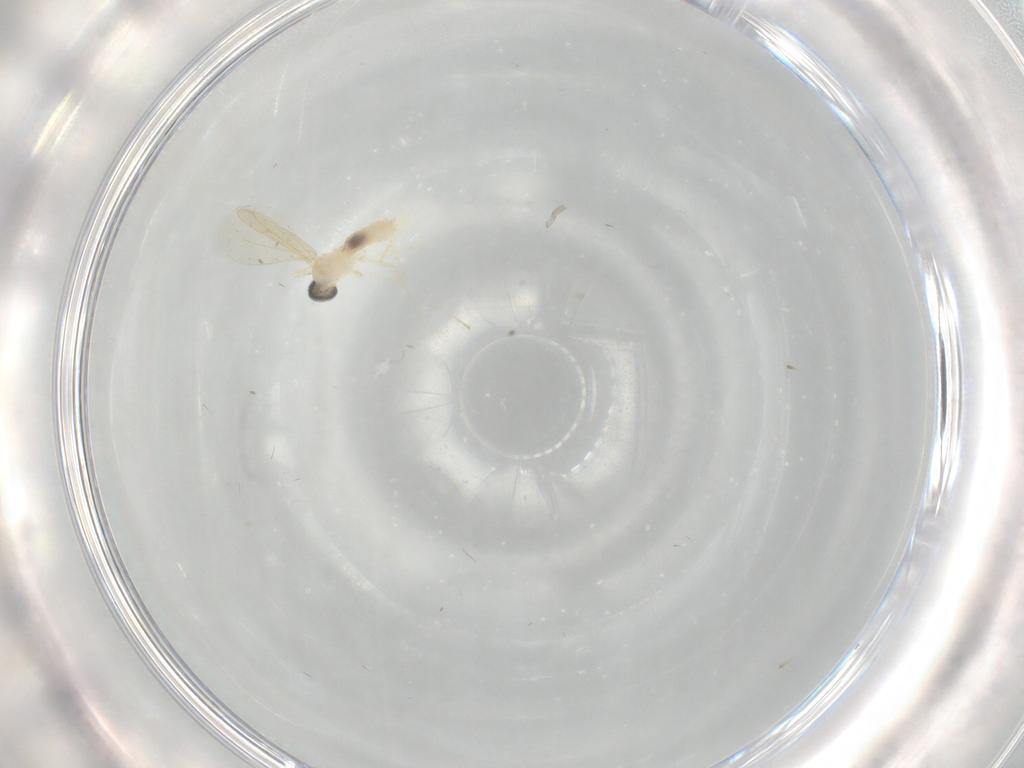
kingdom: Animalia
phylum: Arthropoda
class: Insecta
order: Diptera
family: Cecidomyiidae
